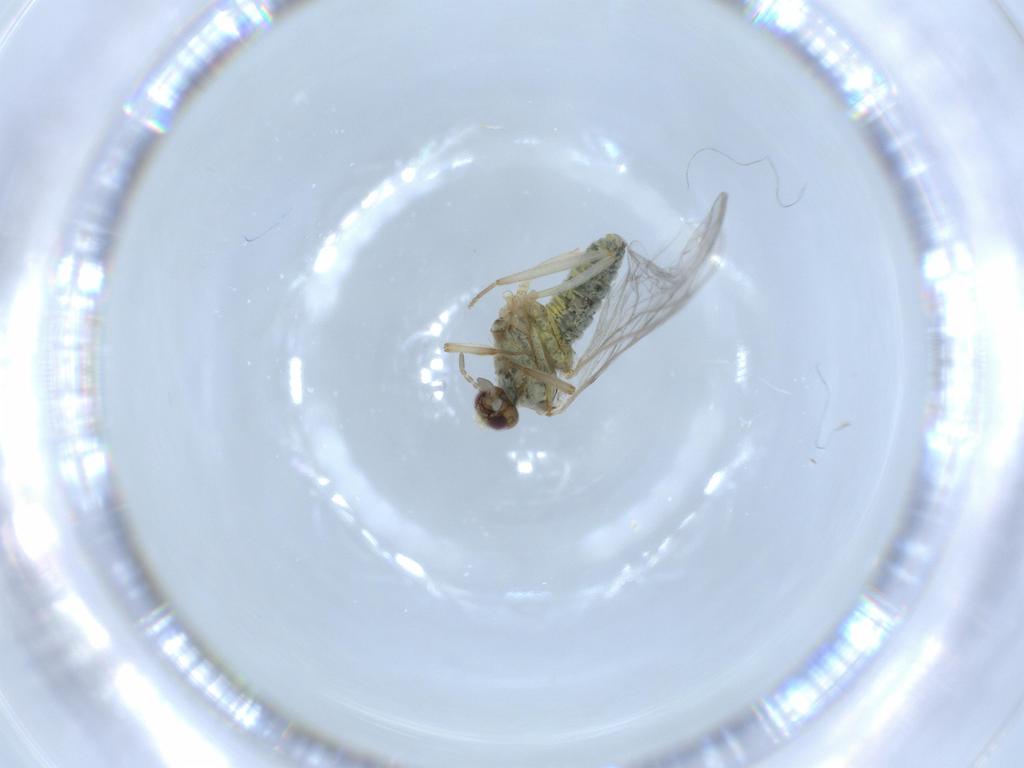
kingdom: Animalia
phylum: Arthropoda
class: Insecta
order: Neuroptera
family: Coniopterygidae
